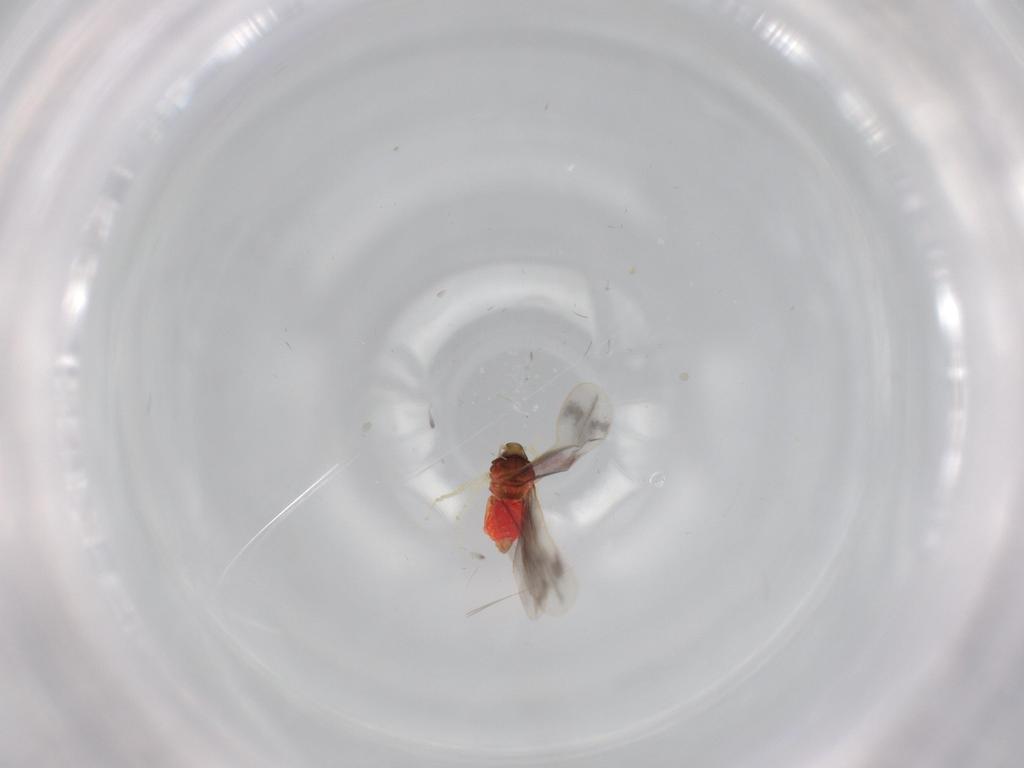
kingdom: Animalia
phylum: Arthropoda
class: Insecta
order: Hemiptera
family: Aleyrodidae
